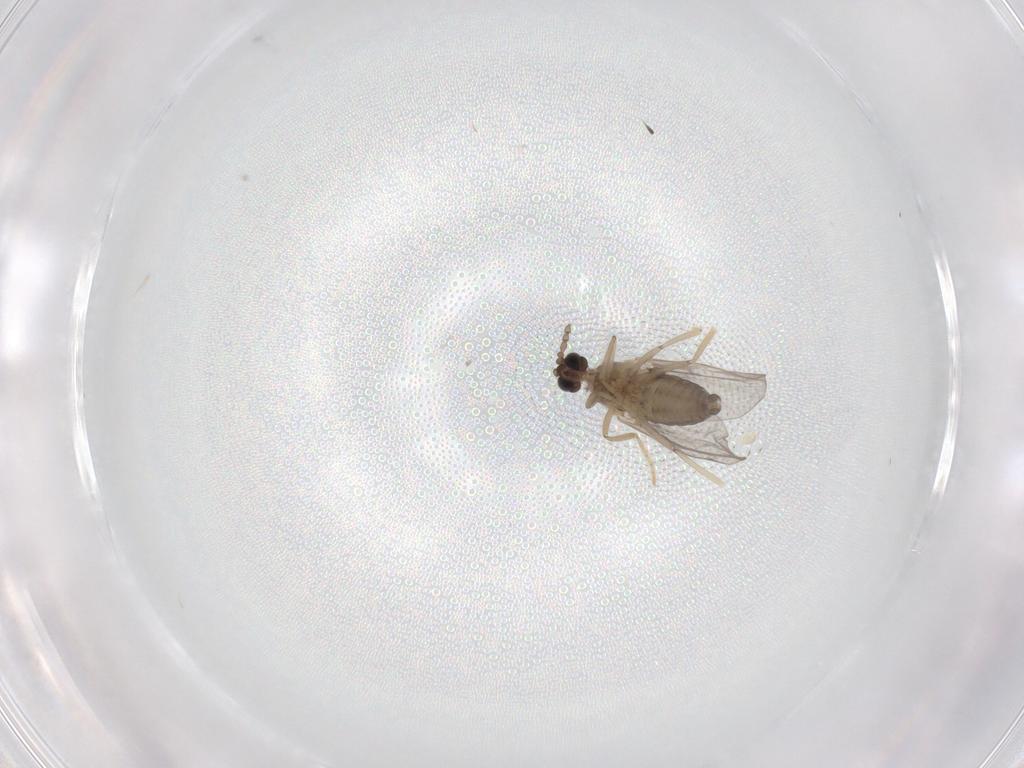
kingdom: Animalia
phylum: Arthropoda
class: Insecta
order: Diptera
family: Cecidomyiidae
